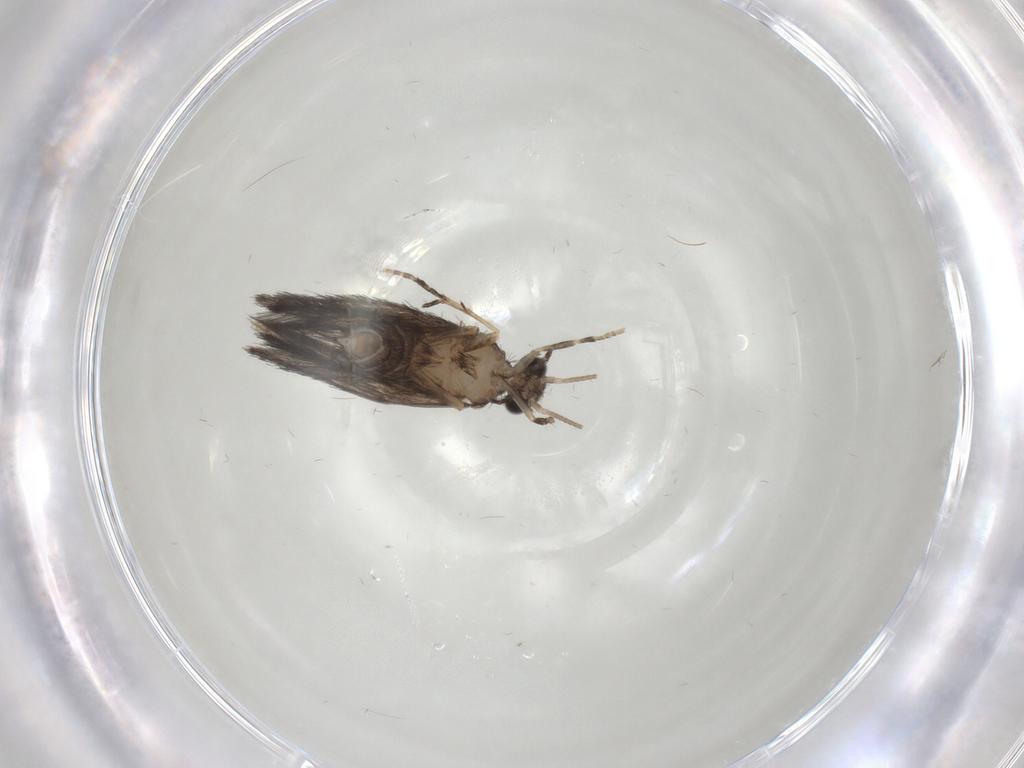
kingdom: Animalia
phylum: Arthropoda
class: Insecta
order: Trichoptera
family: Hydroptilidae
